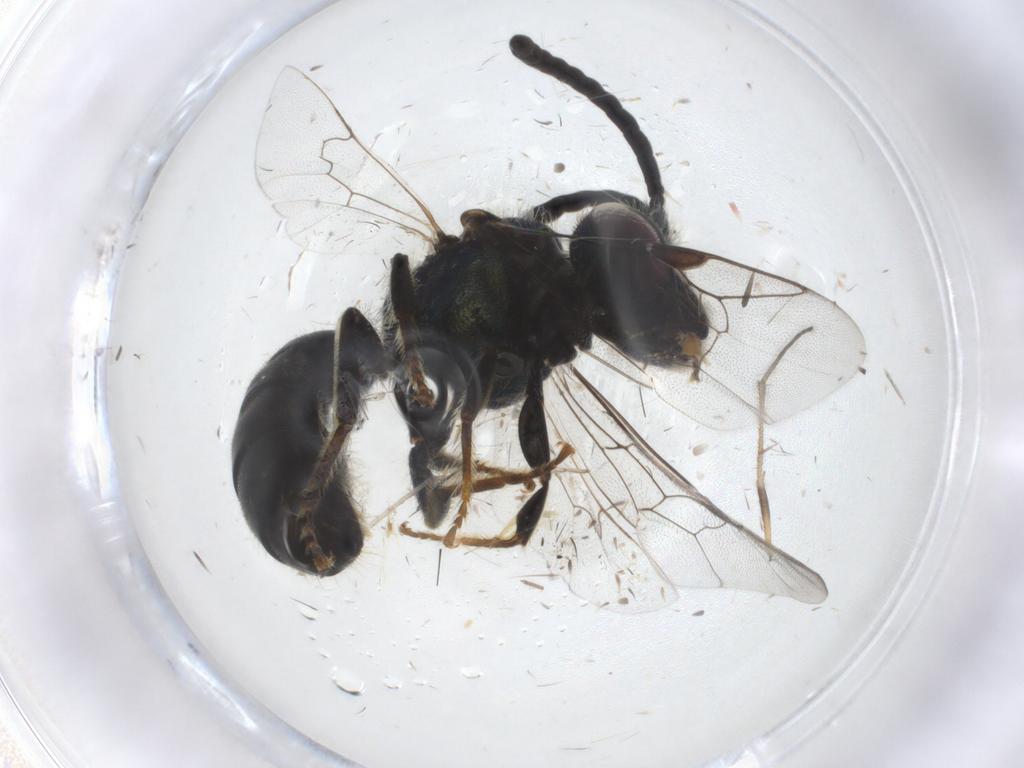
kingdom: Animalia
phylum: Arthropoda
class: Insecta
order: Hymenoptera
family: Halictidae
